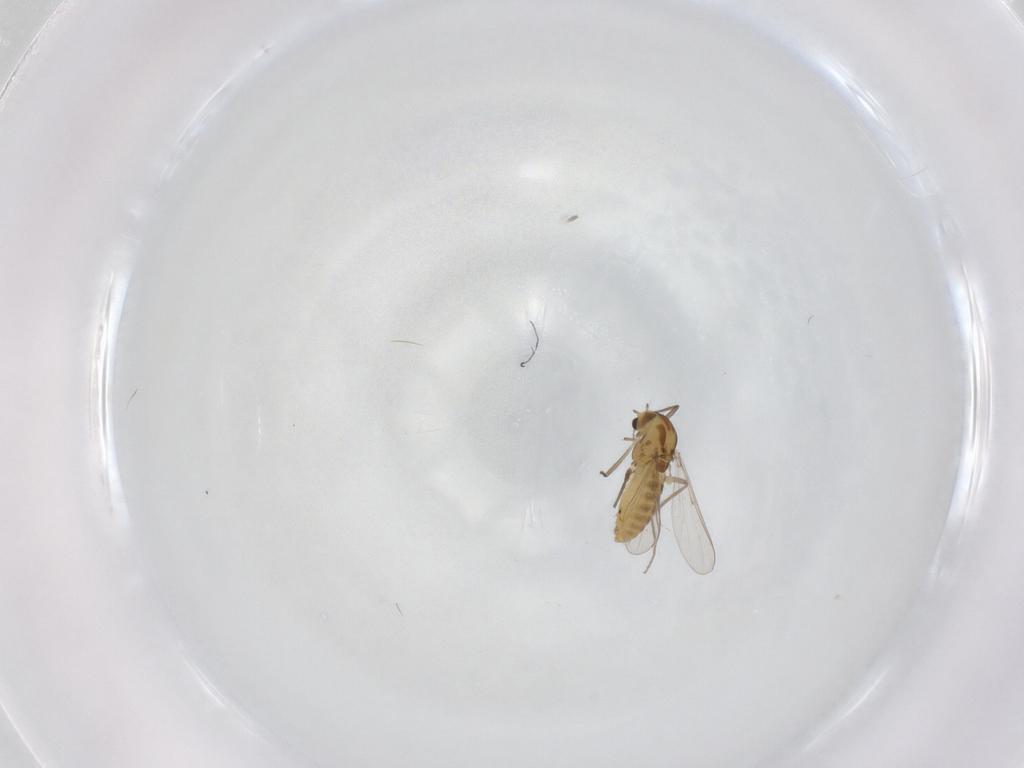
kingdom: Animalia
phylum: Arthropoda
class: Insecta
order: Diptera
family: Chironomidae
